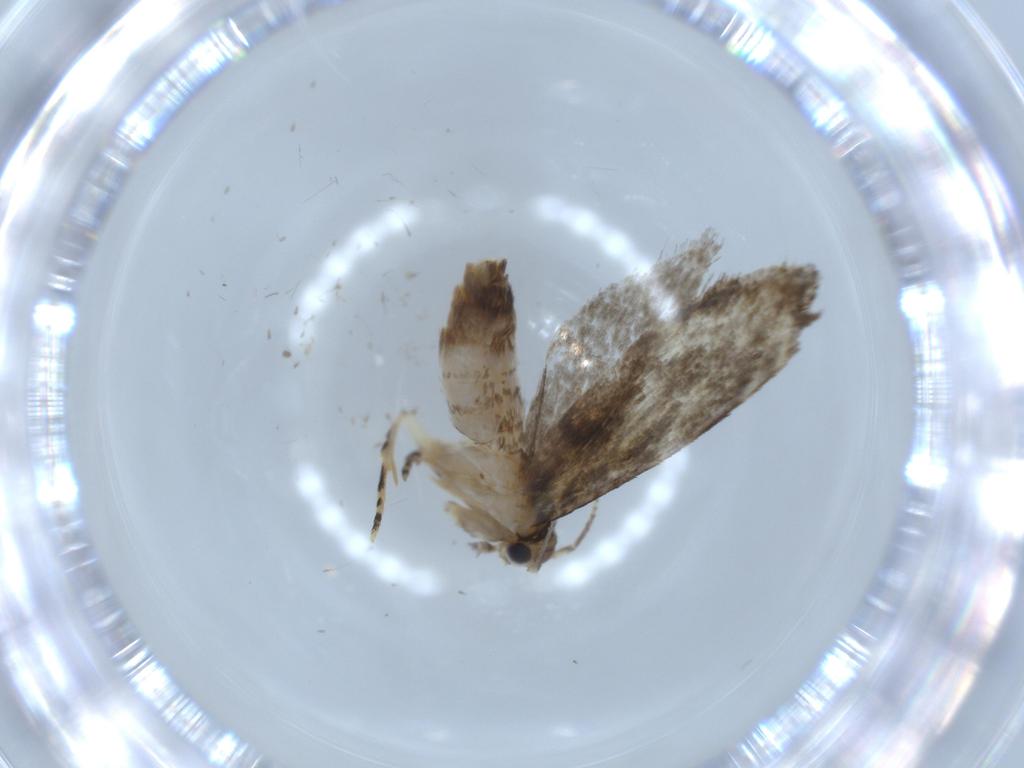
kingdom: Animalia
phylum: Arthropoda
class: Insecta
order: Lepidoptera
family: Tineidae
